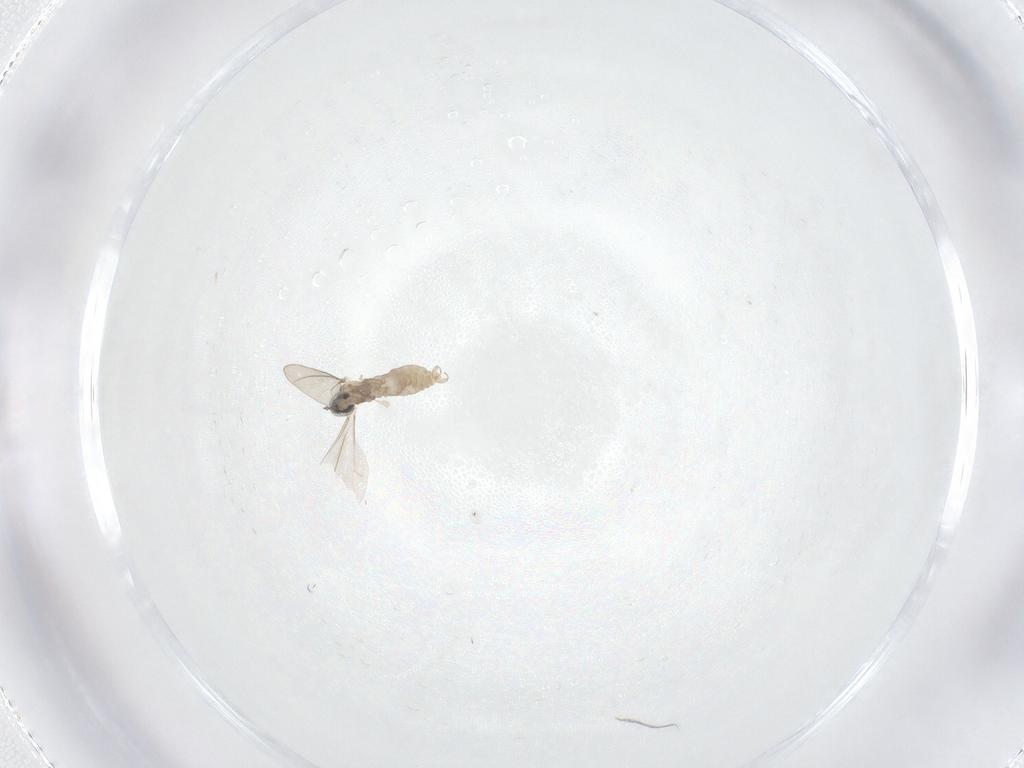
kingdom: Animalia
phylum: Arthropoda
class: Insecta
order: Diptera
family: Cecidomyiidae
